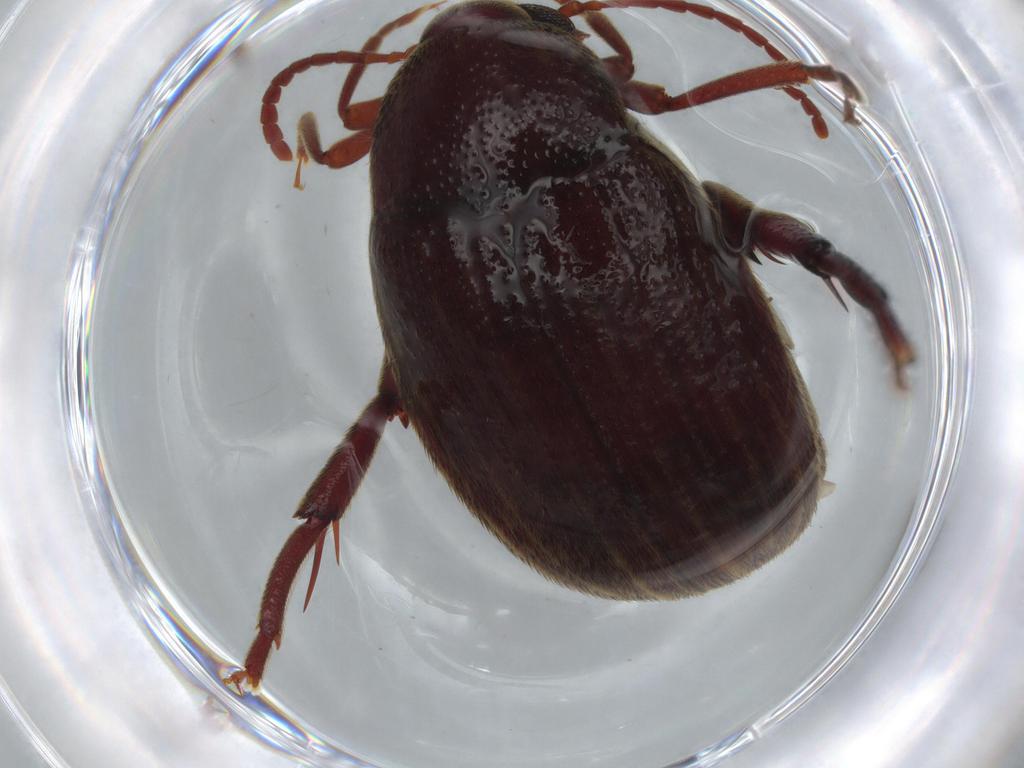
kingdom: Animalia
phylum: Arthropoda
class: Insecta
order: Coleoptera
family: Chrysomelidae
